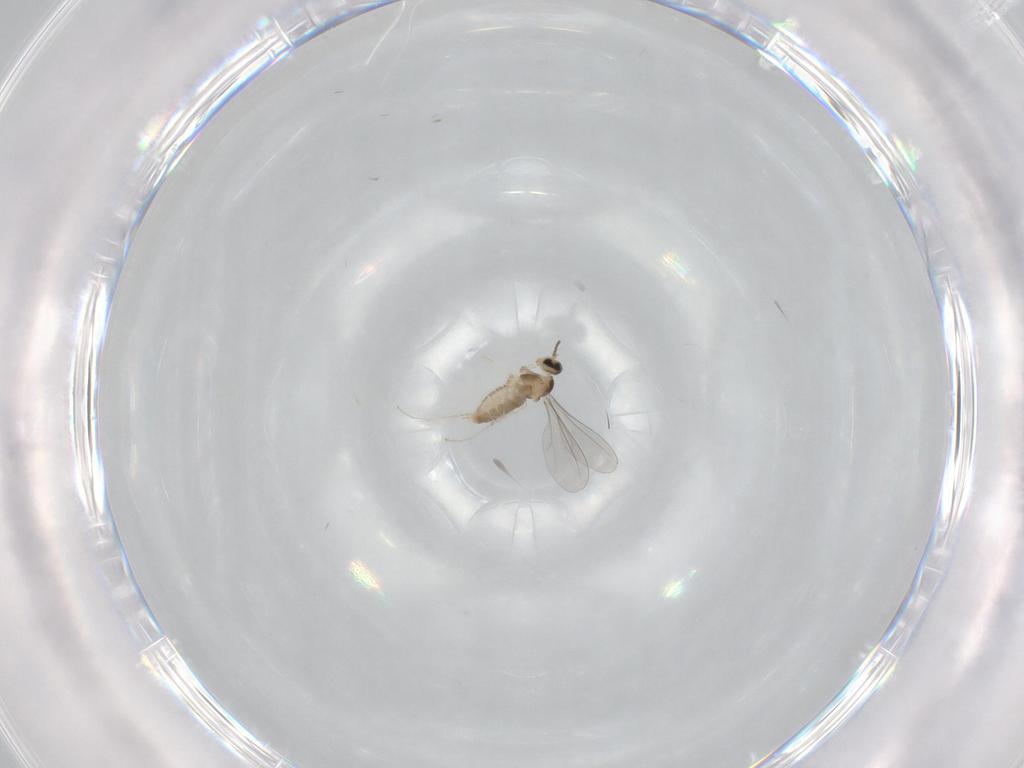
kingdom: Animalia
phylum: Arthropoda
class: Insecta
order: Diptera
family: Cecidomyiidae
